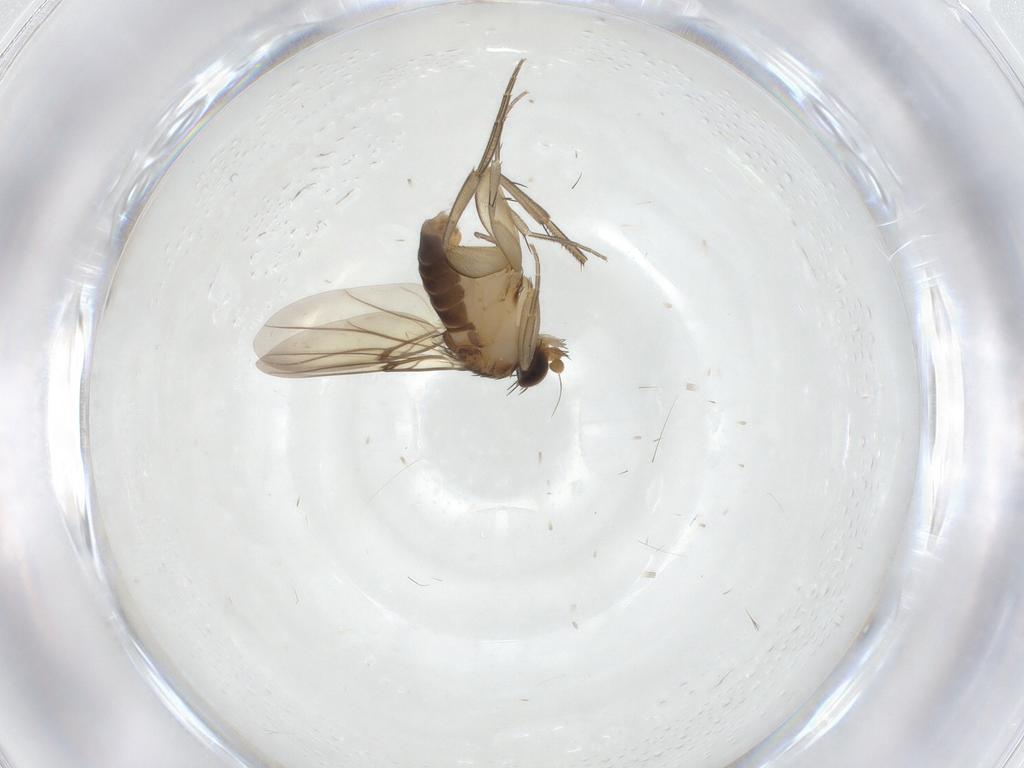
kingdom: Animalia
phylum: Arthropoda
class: Insecta
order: Diptera
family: Phoridae
